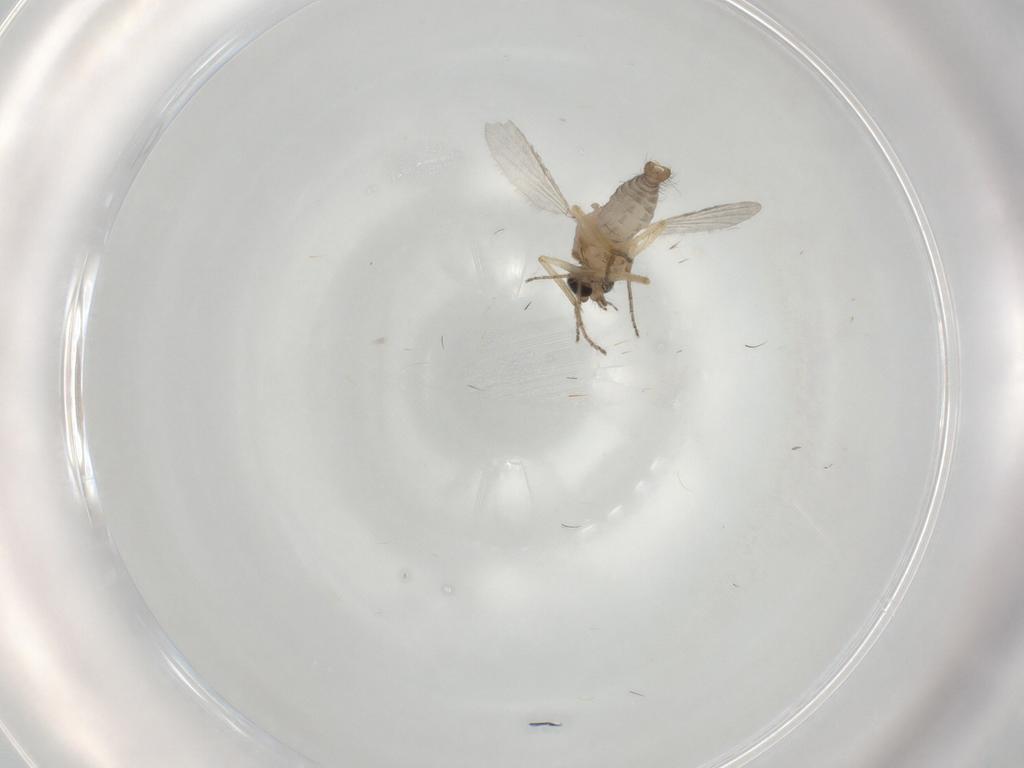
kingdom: Animalia
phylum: Arthropoda
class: Insecta
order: Diptera
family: Ceratopogonidae
